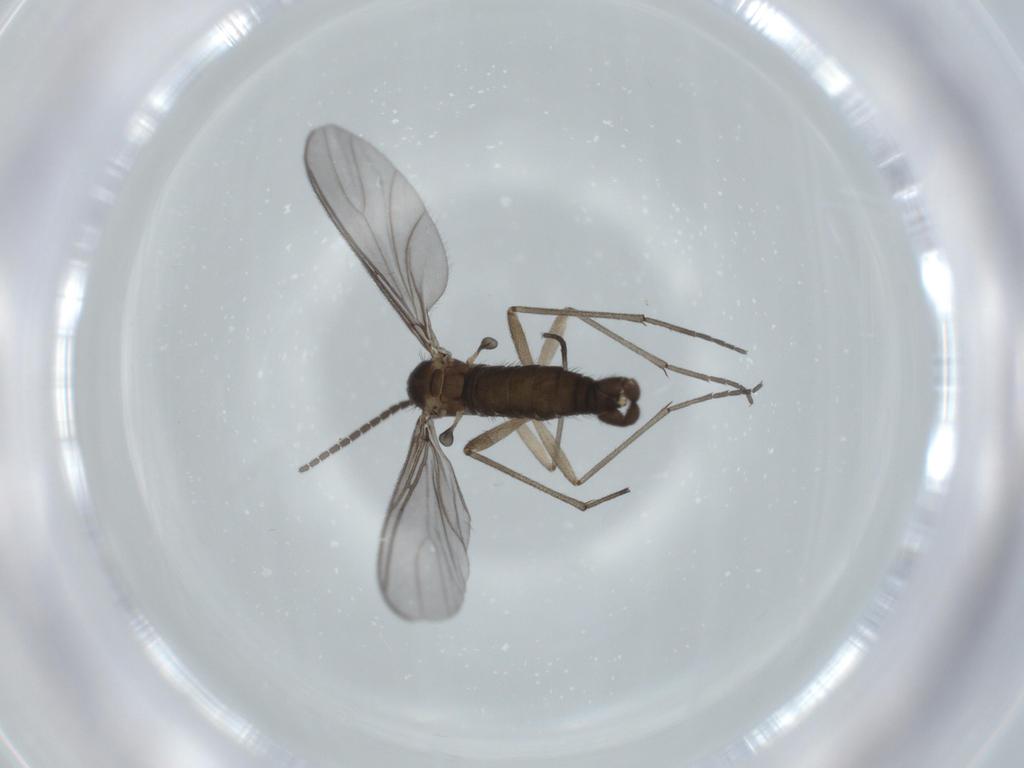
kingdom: Animalia
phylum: Arthropoda
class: Insecta
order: Diptera
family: Sciaridae
